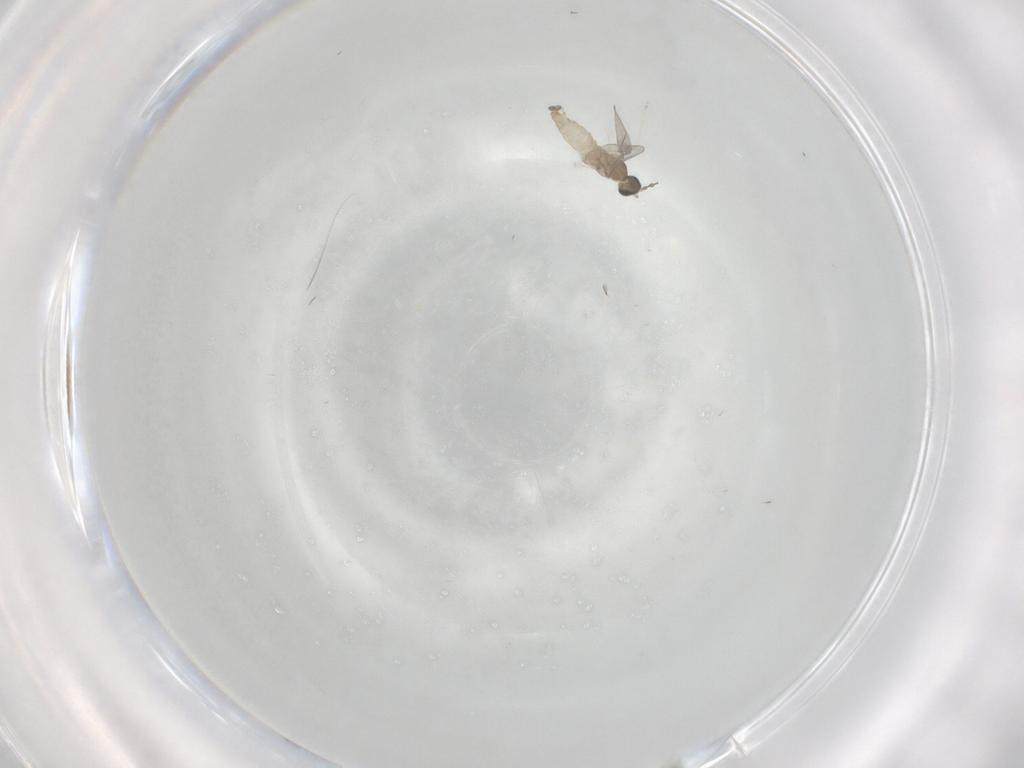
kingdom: Animalia
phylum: Arthropoda
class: Insecta
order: Diptera
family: Cecidomyiidae
